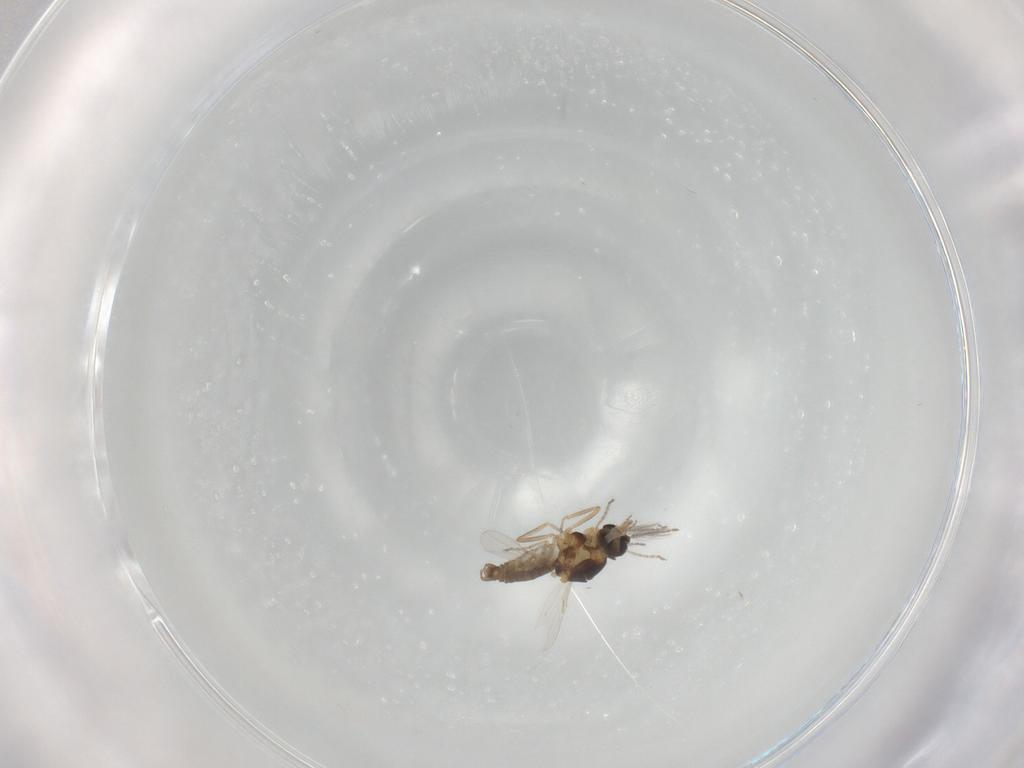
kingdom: Animalia
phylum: Arthropoda
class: Insecta
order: Diptera
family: Ceratopogonidae
